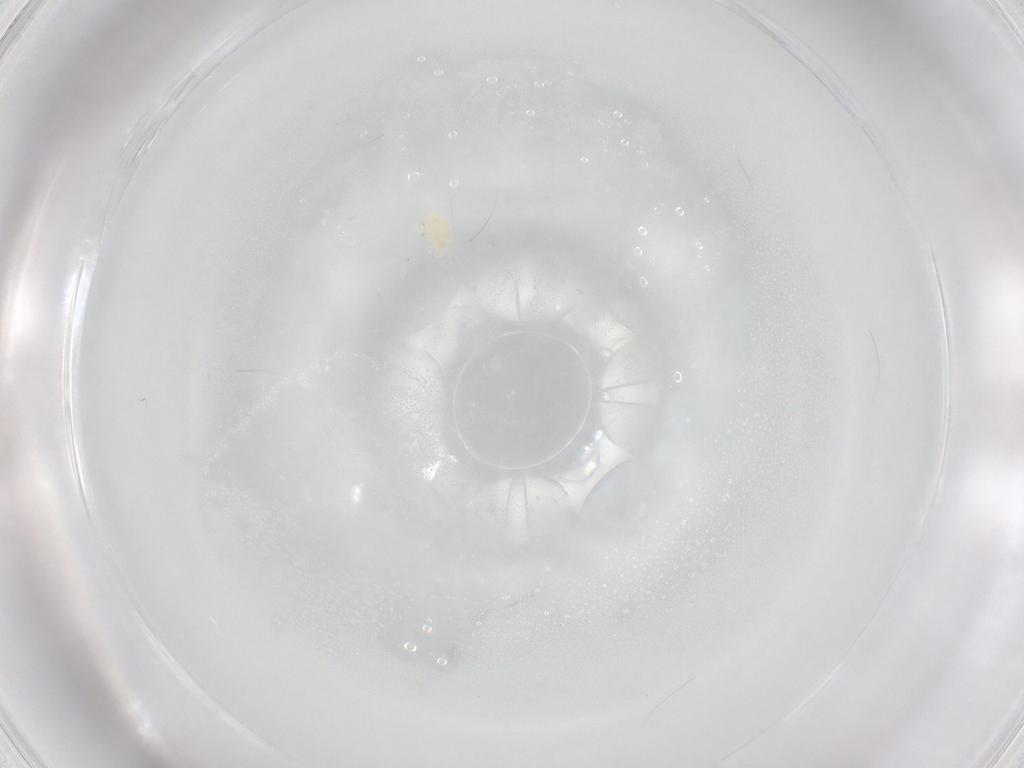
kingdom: Animalia
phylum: Arthropoda
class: Arachnida
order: Trombidiformes
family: Eupodidae
